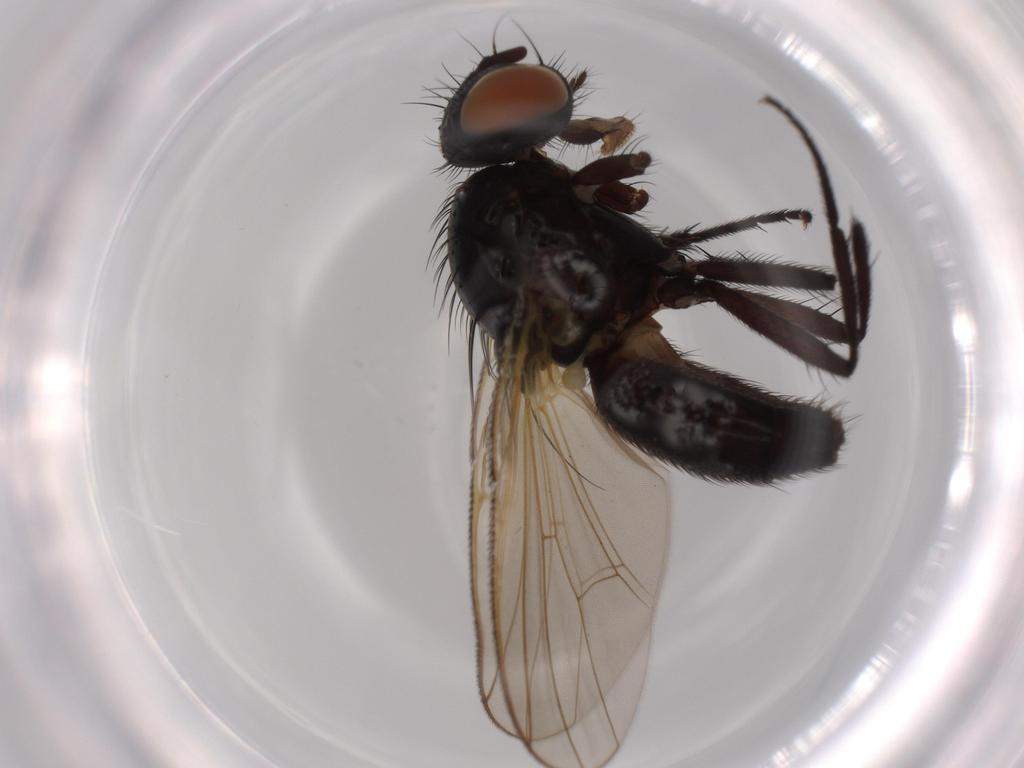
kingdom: Animalia
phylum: Arthropoda
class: Insecta
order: Diptera
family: Fannia
